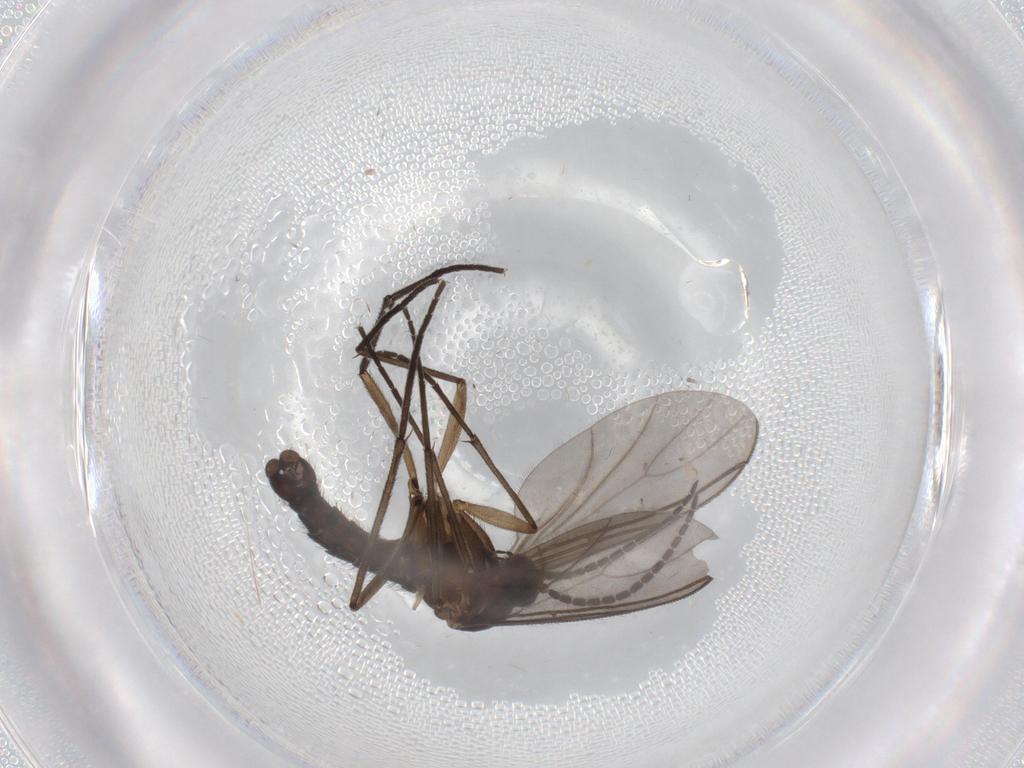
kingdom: Animalia
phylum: Arthropoda
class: Insecta
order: Diptera
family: Sciaridae
